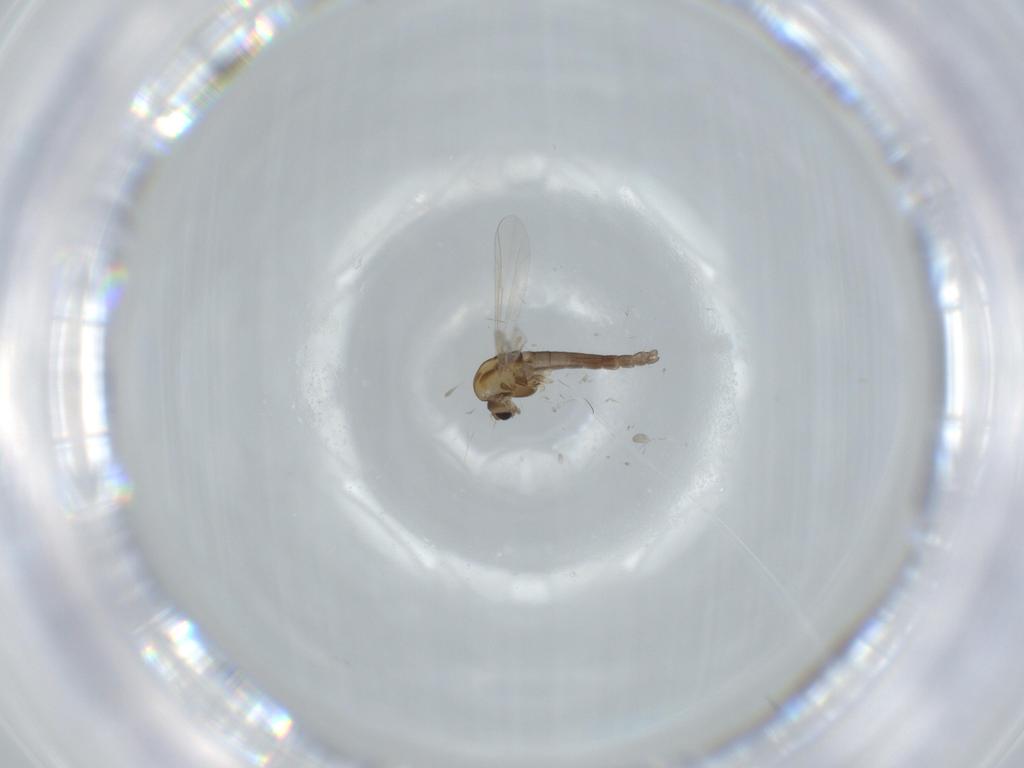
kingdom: Animalia
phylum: Arthropoda
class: Insecta
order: Diptera
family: Chironomidae
